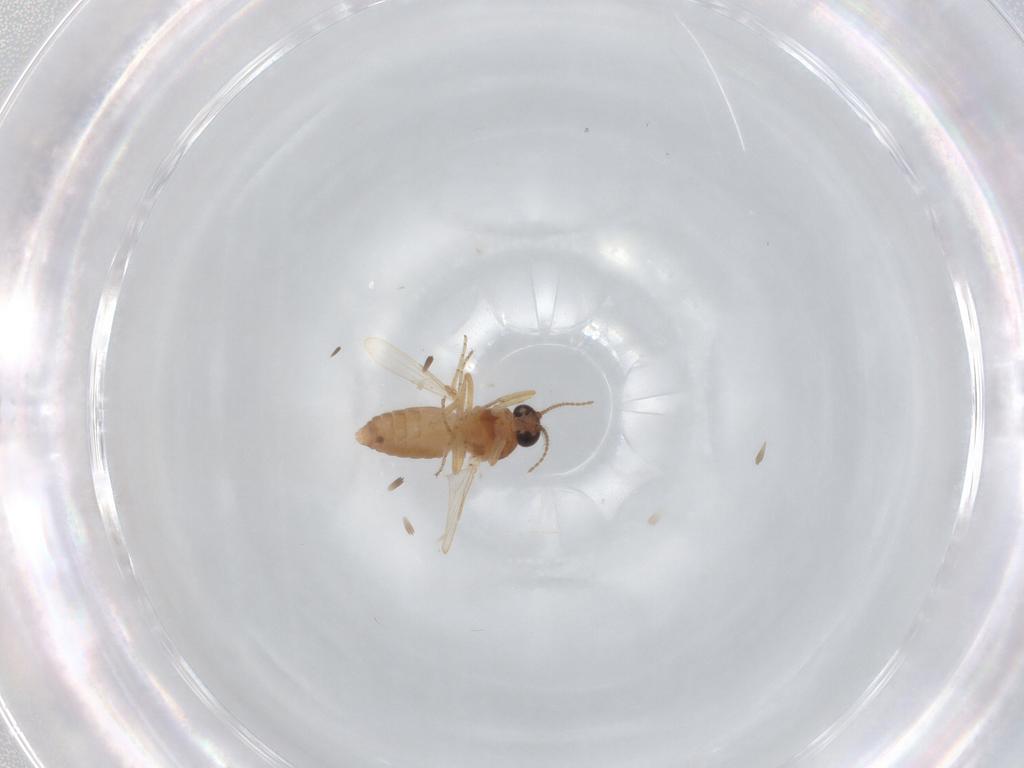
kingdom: Animalia
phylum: Arthropoda
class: Insecta
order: Diptera
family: Ceratopogonidae
